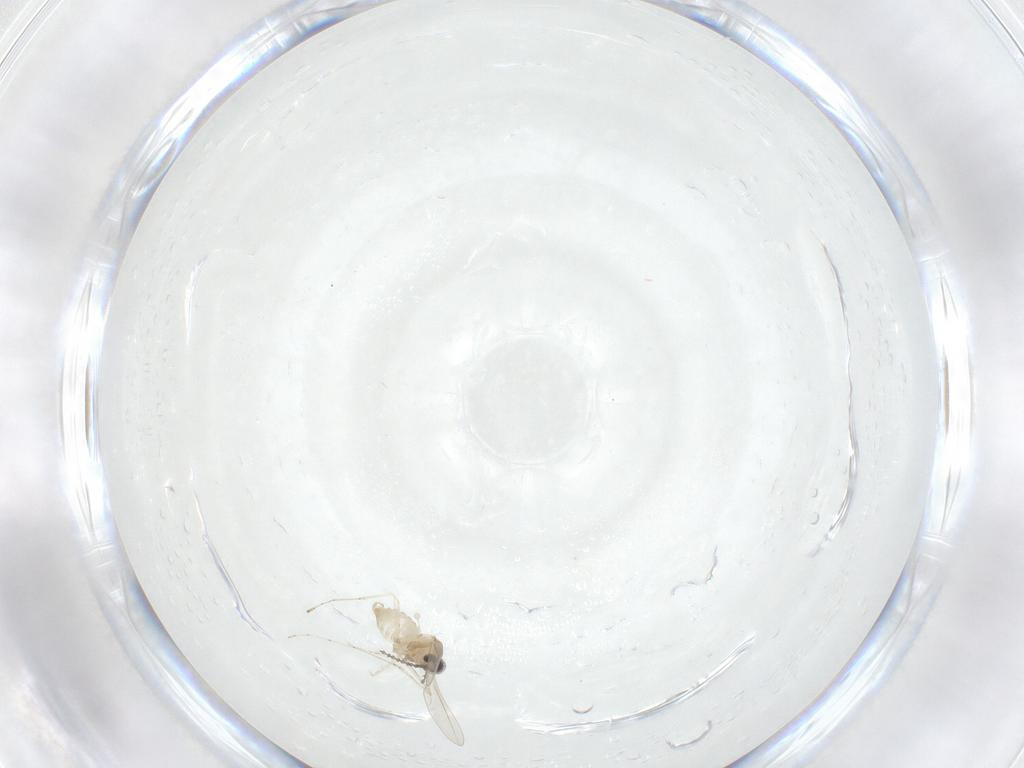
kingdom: Animalia
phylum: Arthropoda
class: Insecta
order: Diptera
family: Cecidomyiidae
